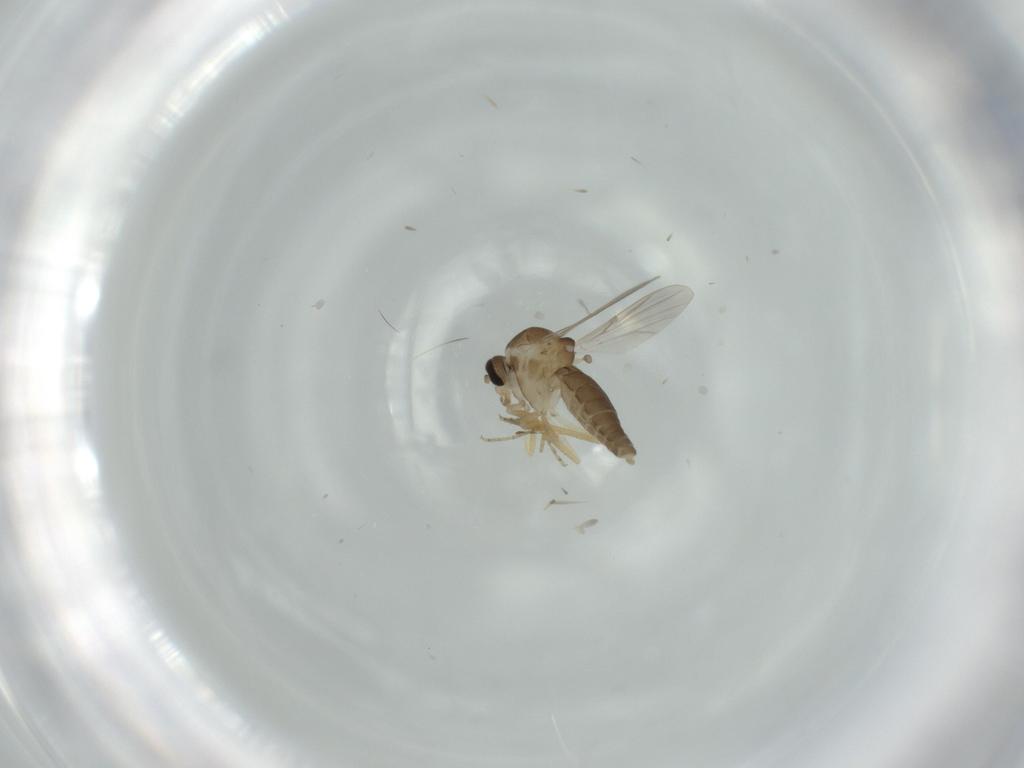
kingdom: Animalia
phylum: Arthropoda
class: Insecta
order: Diptera
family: Ceratopogonidae
